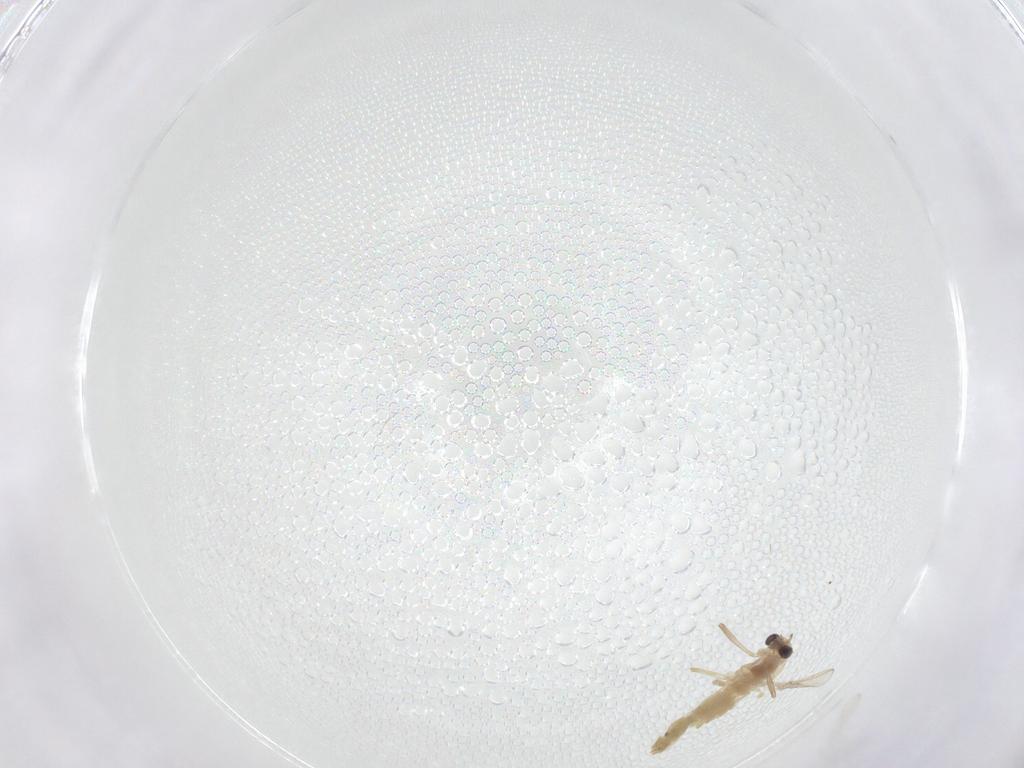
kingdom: Animalia
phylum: Arthropoda
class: Insecta
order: Diptera
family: Chironomidae
